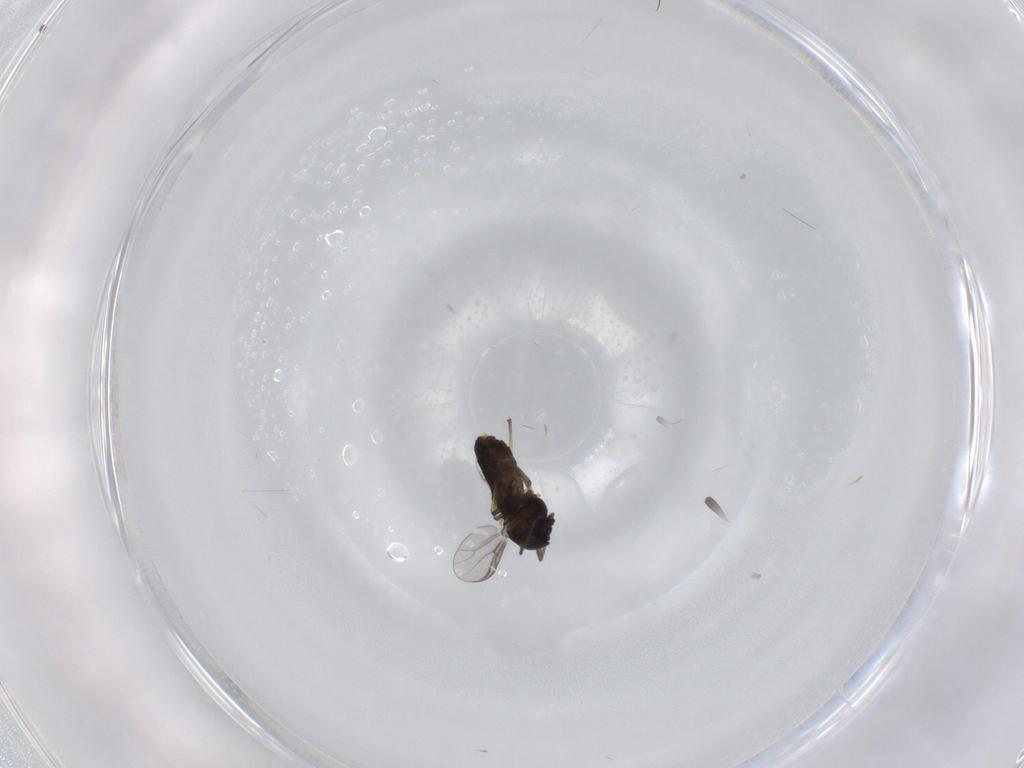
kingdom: Animalia
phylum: Arthropoda
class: Insecta
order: Diptera
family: Chironomidae
